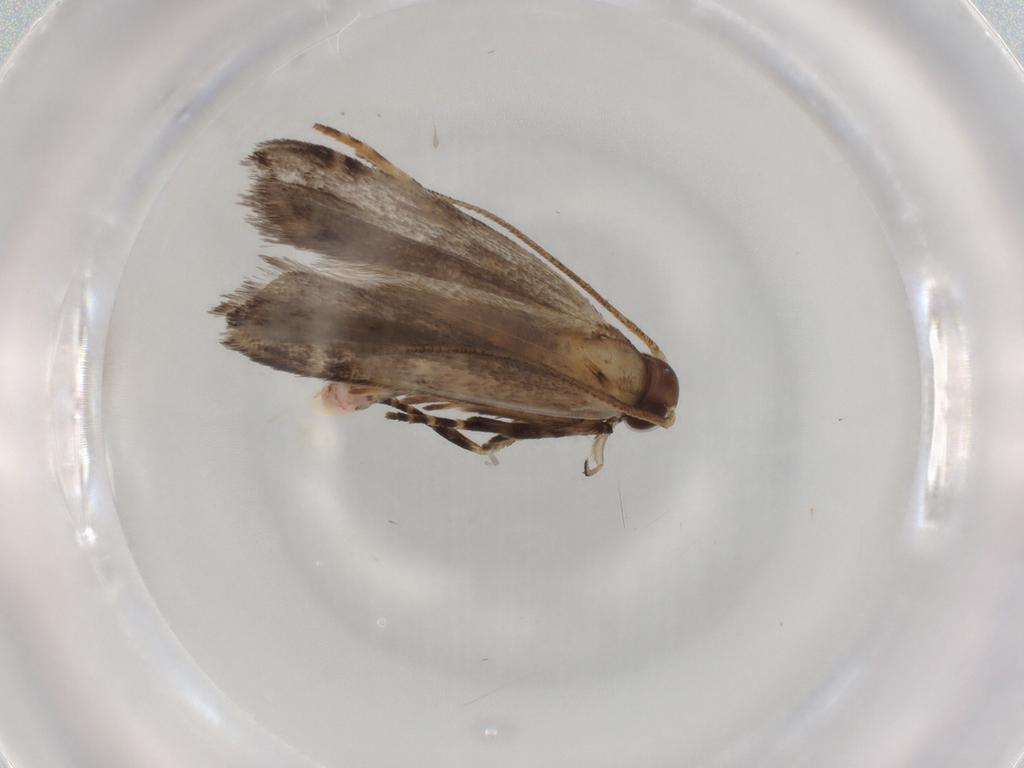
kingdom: Animalia
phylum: Arthropoda
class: Insecta
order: Lepidoptera
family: Gelechiidae
